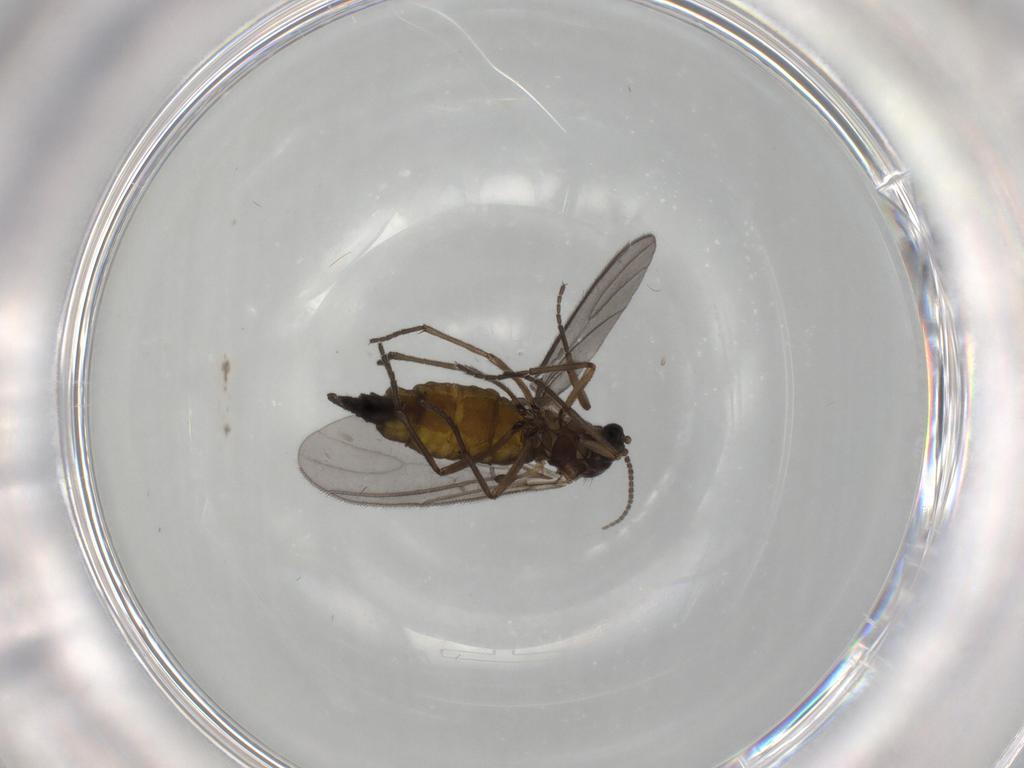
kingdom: Animalia
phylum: Arthropoda
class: Insecta
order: Diptera
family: Sciaridae
